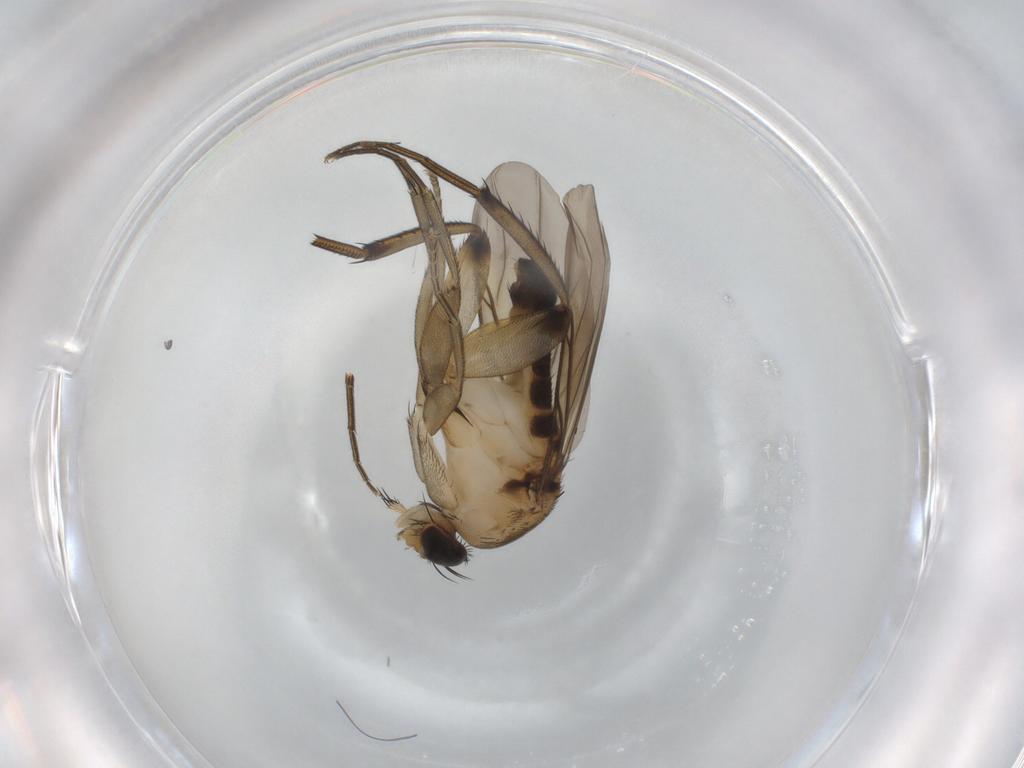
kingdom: Animalia
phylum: Arthropoda
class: Insecta
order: Diptera
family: Phoridae
